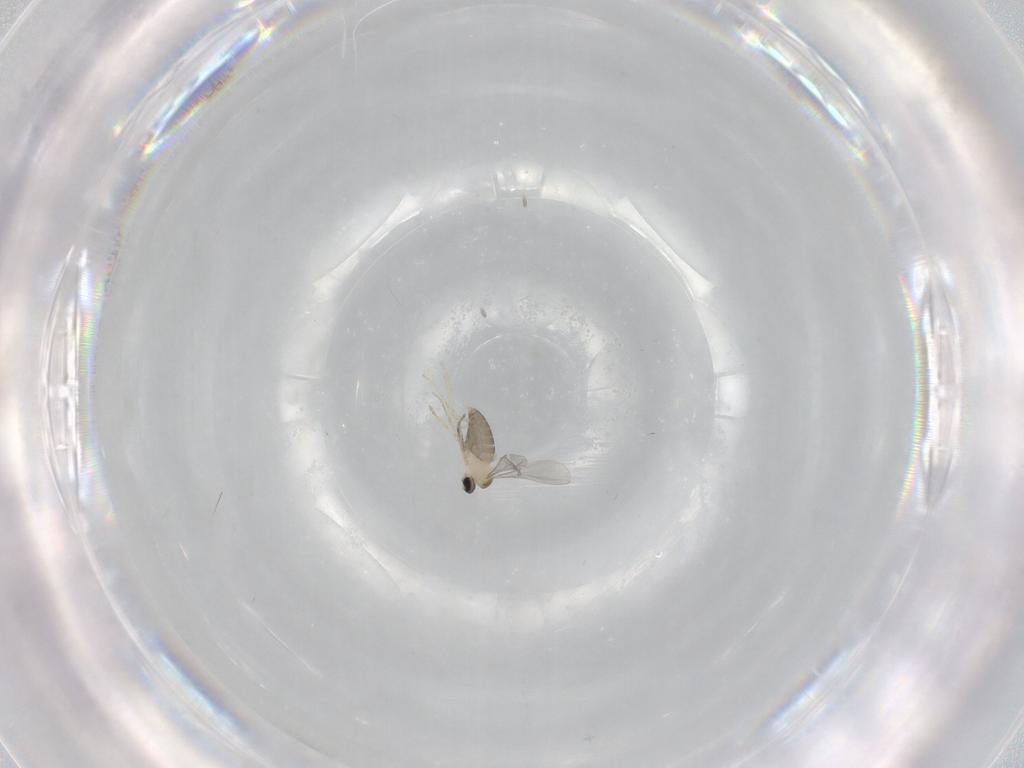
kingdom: Animalia
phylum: Arthropoda
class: Insecta
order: Diptera
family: Cecidomyiidae
